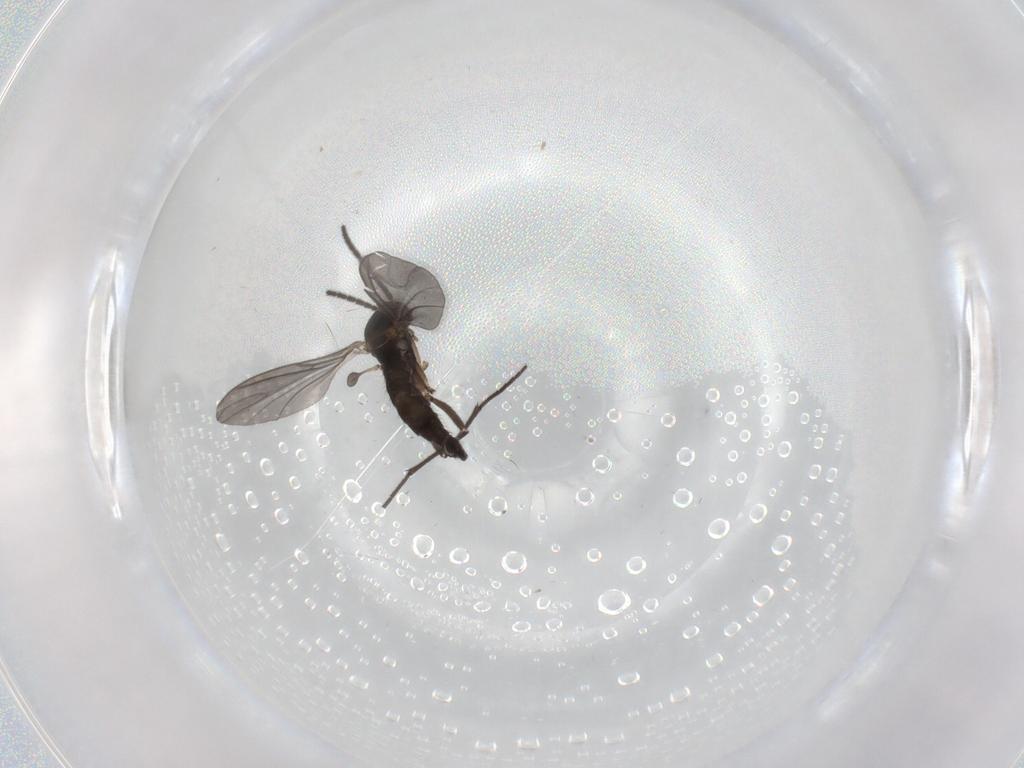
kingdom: Animalia
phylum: Arthropoda
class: Insecta
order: Diptera
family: Sciaridae
